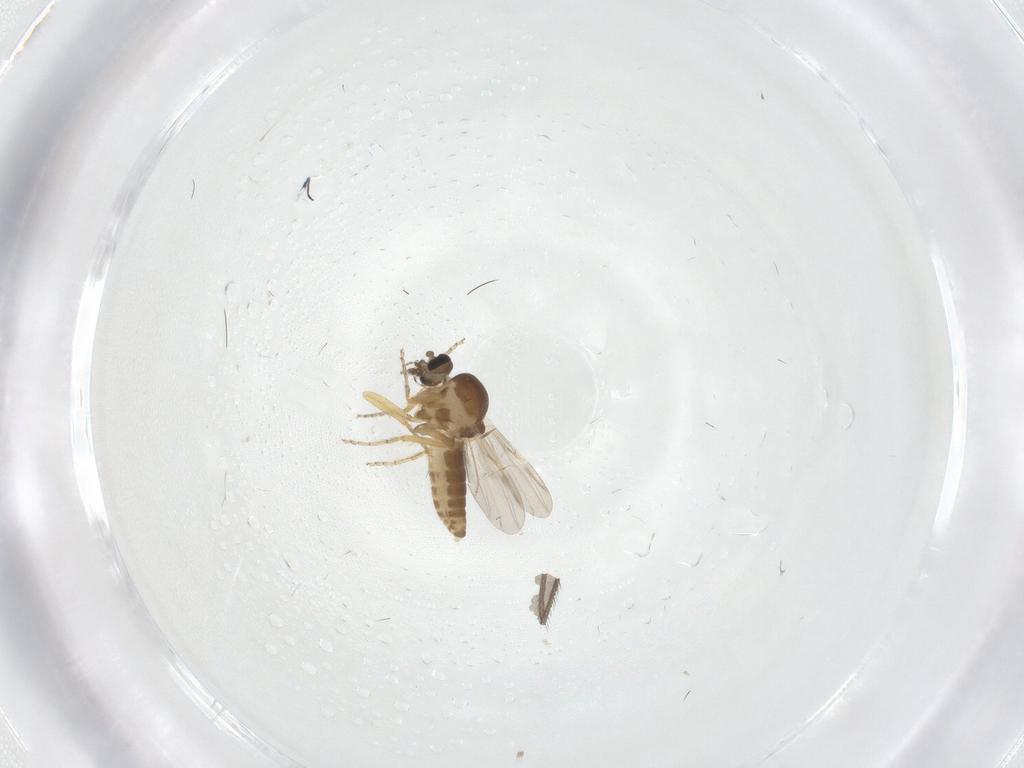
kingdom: Animalia
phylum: Arthropoda
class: Insecta
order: Diptera
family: Ceratopogonidae
